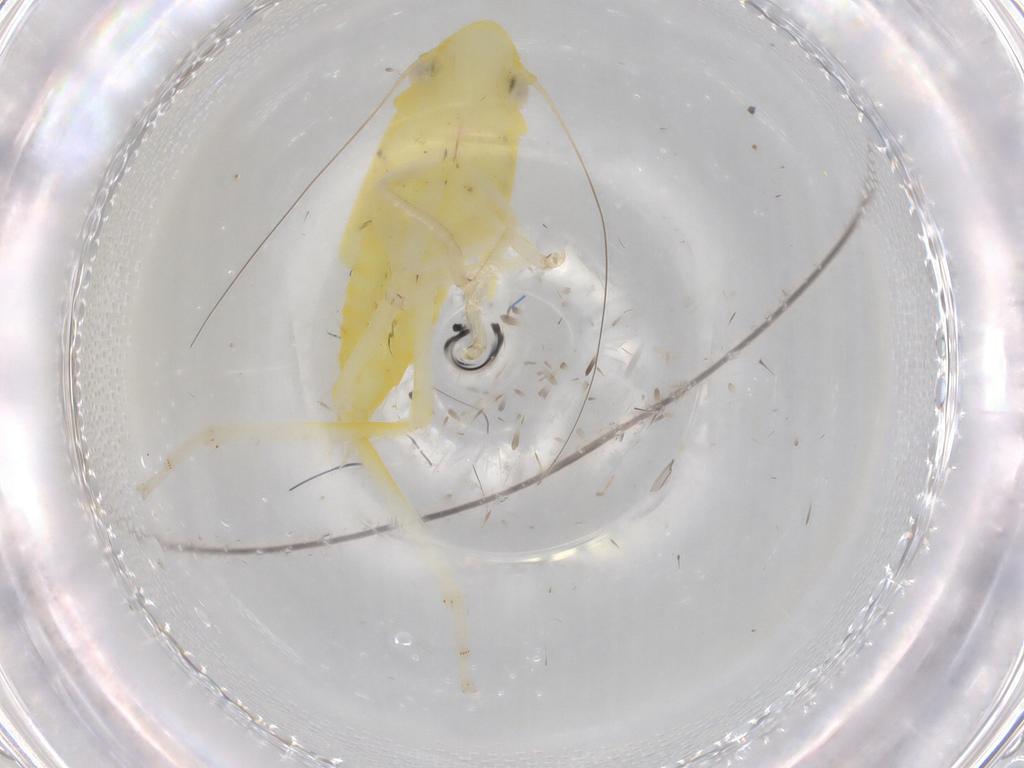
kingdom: Animalia
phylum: Arthropoda
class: Insecta
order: Hemiptera
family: Cicadellidae
